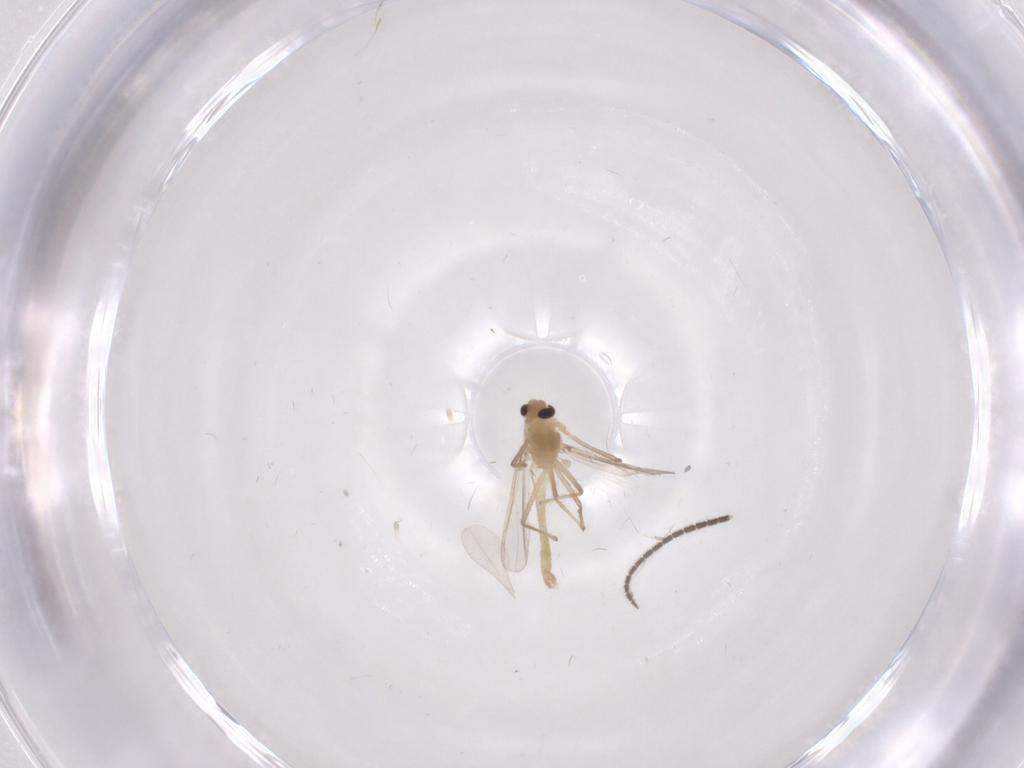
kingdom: Animalia
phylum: Arthropoda
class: Insecta
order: Diptera
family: Chironomidae
